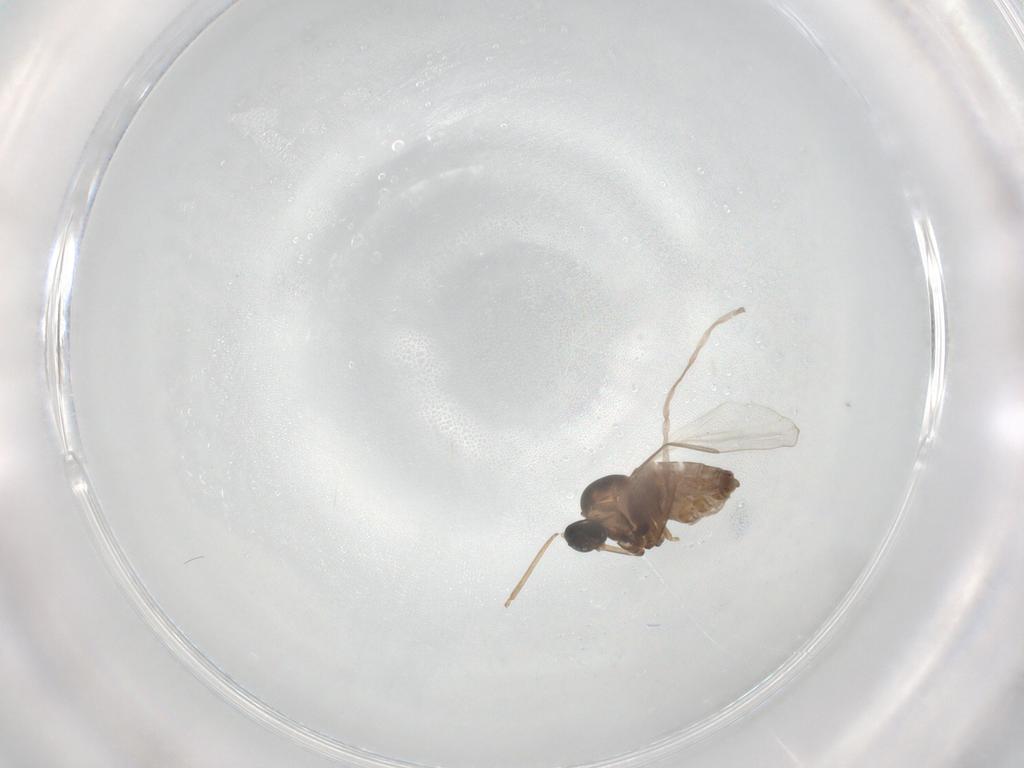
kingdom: Animalia
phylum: Arthropoda
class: Insecta
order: Diptera
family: Cecidomyiidae
